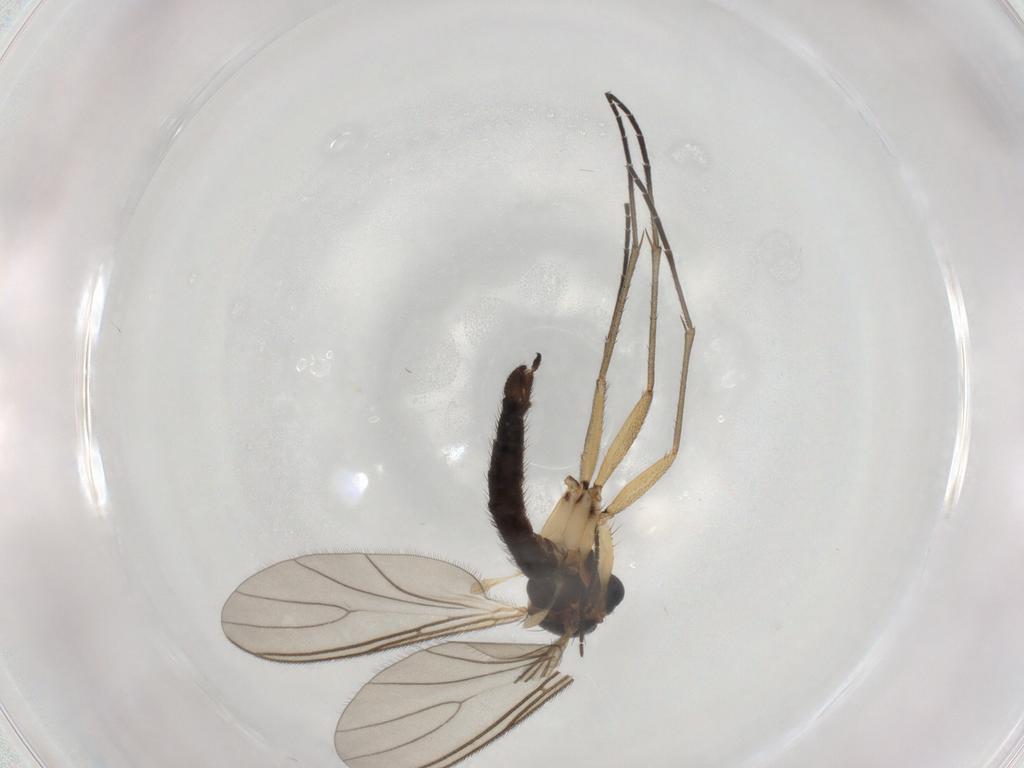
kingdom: Animalia
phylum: Arthropoda
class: Insecta
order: Diptera
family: Sciaridae
